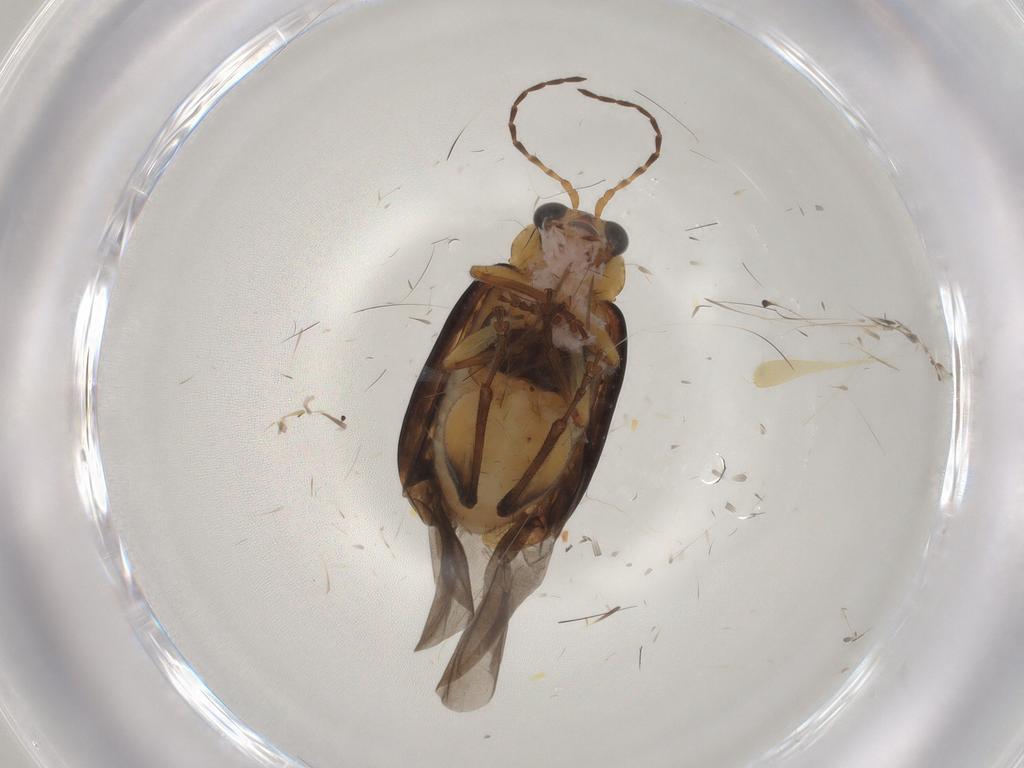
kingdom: Animalia
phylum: Arthropoda
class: Insecta
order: Coleoptera
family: Chrysomelidae
